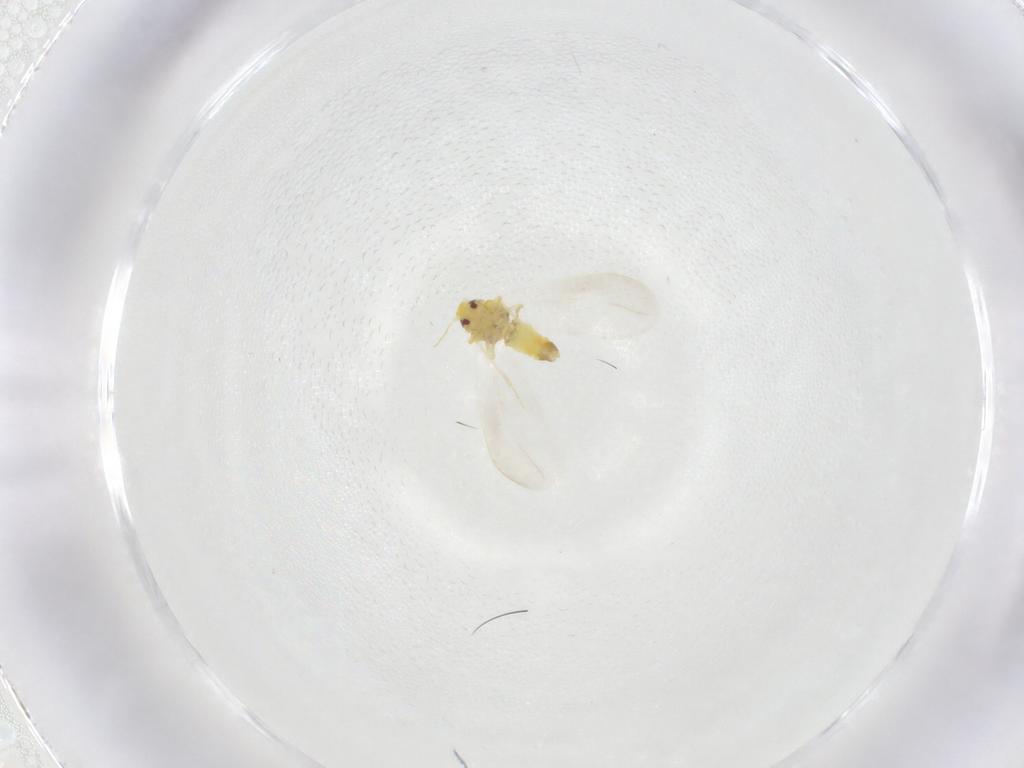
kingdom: Animalia
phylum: Arthropoda
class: Insecta
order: Hemiptera
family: Aleyrodidae
